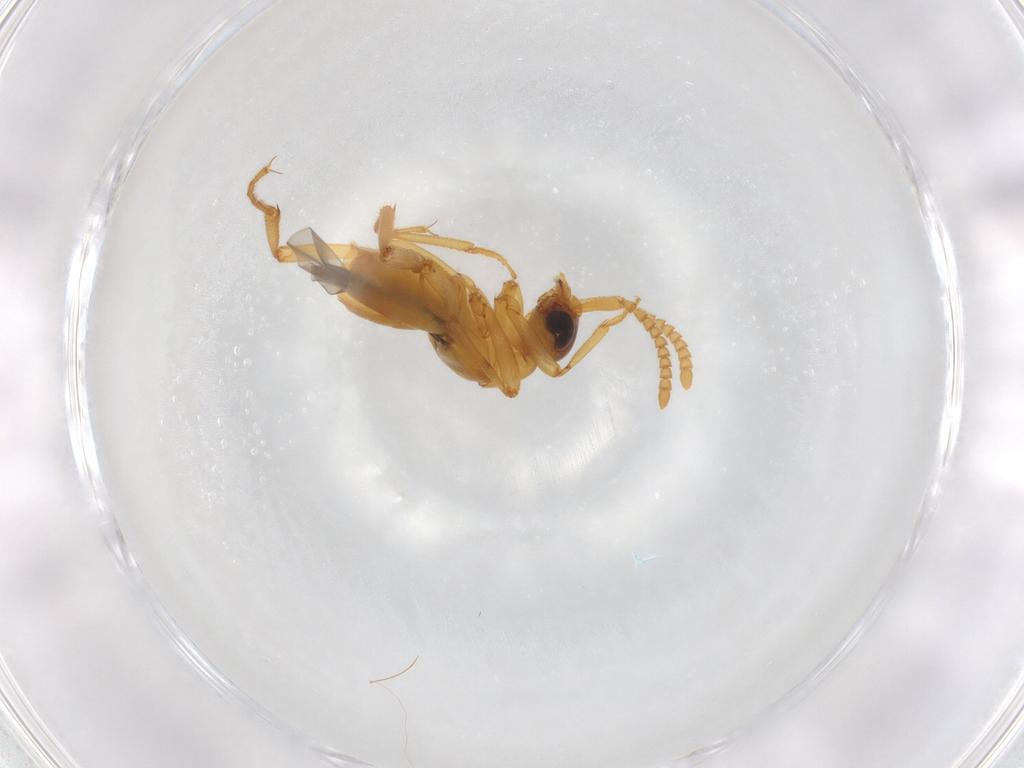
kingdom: Animalia
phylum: Arthropoda
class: Insecta
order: Coleoptera
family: Staphylinidae
